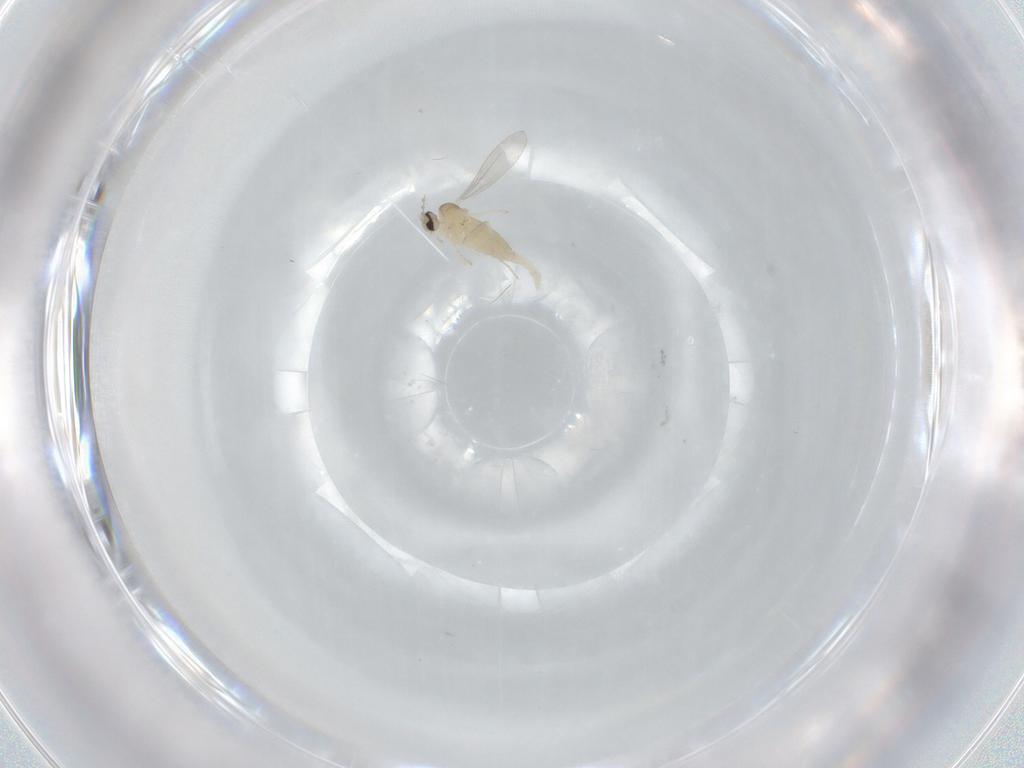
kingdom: Animalia
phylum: Arthropoda
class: Insecta
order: Diptera
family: Cecidomyiidae
